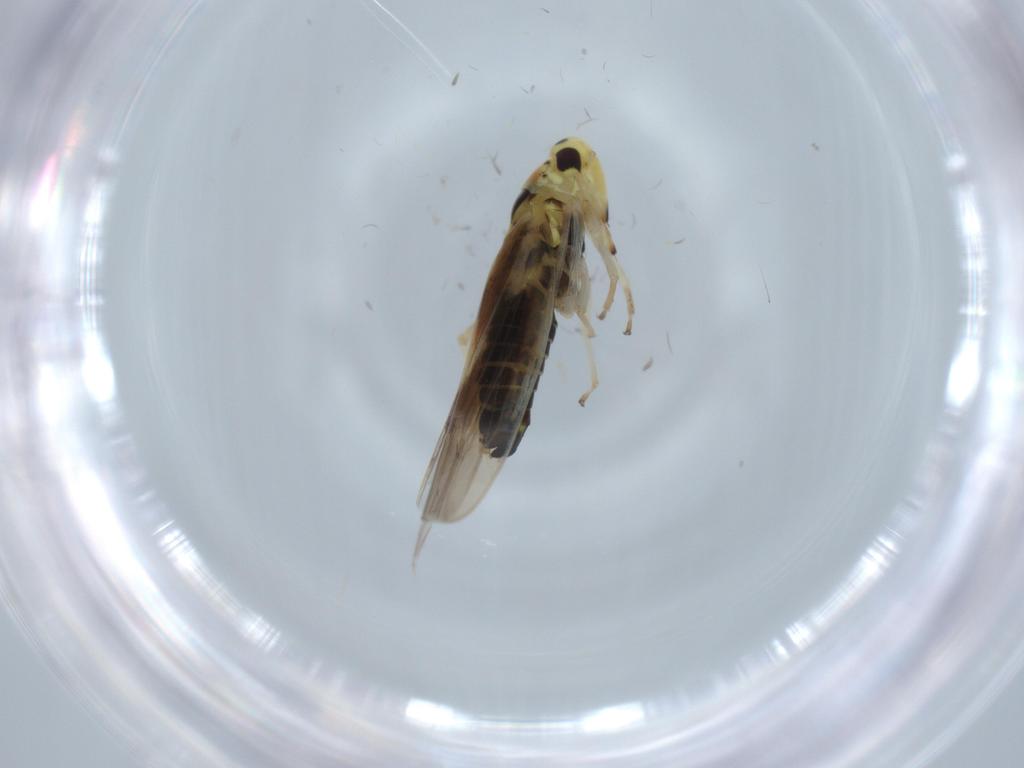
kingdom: Animalia
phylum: Arthropoda
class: Insecta
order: Hemiptera
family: Cicadellidae
